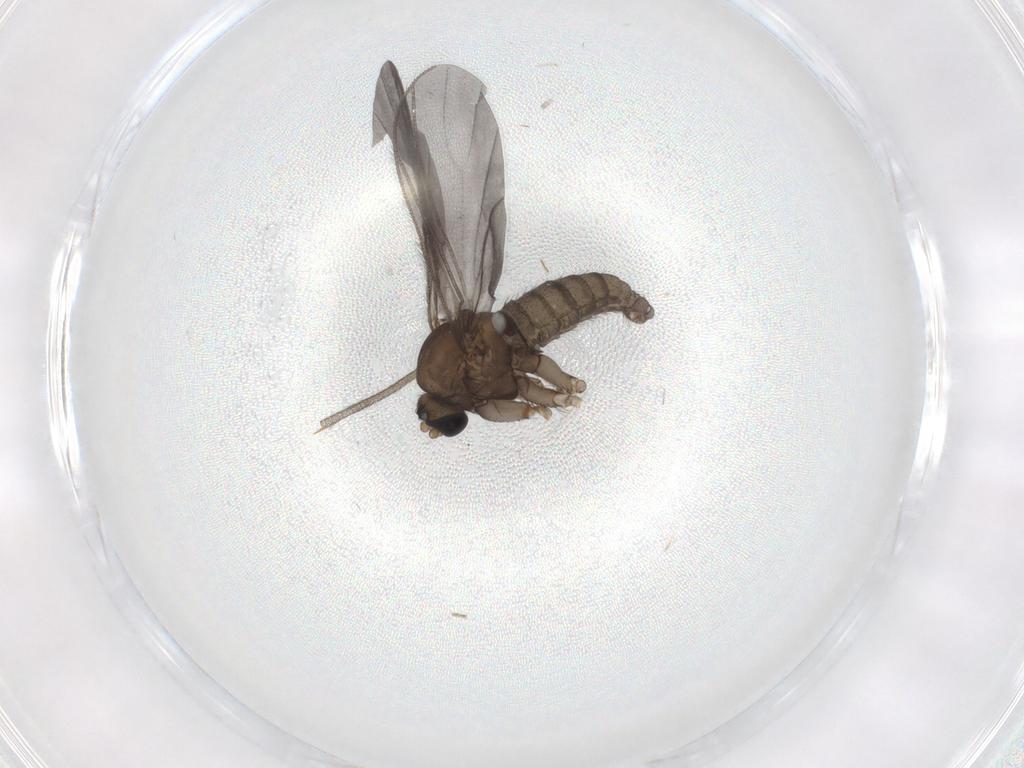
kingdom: Animalia
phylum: Arthropoda
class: Insecta
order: Diptera
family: Sciaridae
